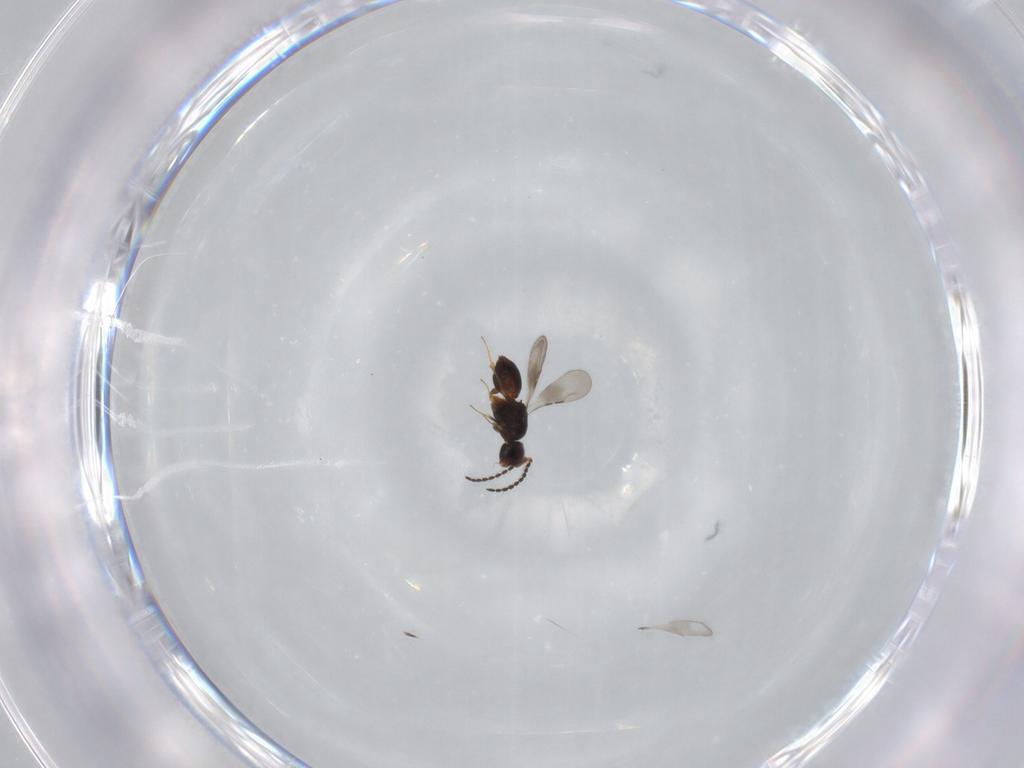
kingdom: Animalia
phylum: Arthropoda
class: Insecta
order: Hymenoptera
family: Scelionidae
